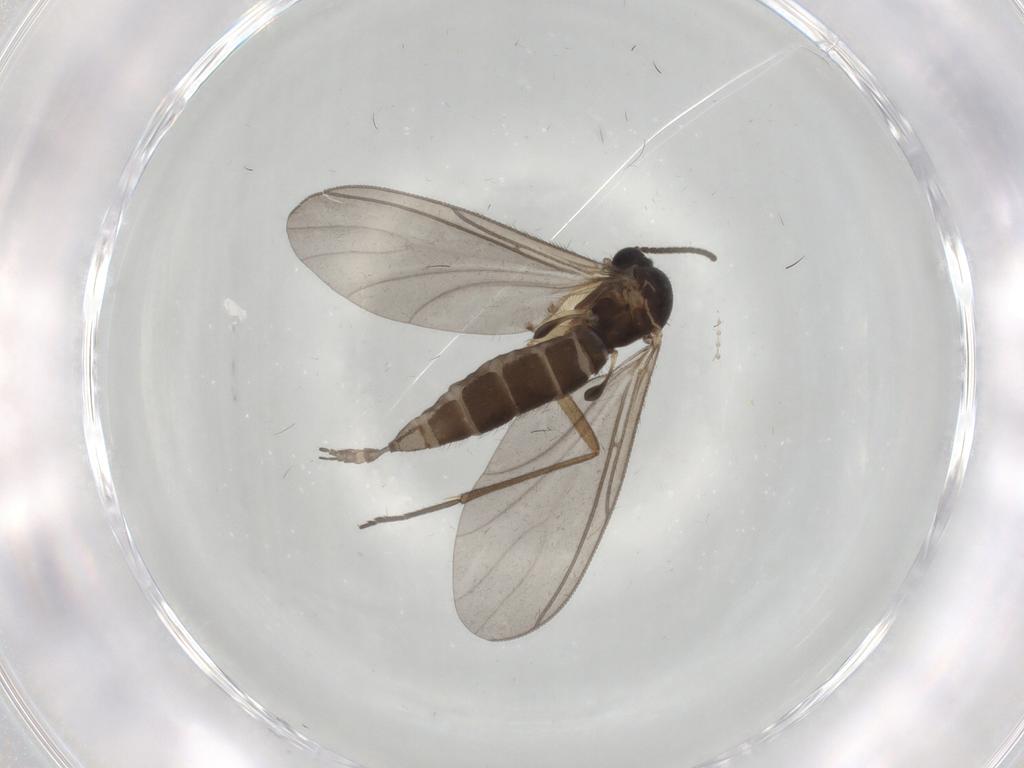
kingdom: Animalia
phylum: Arthropoda
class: Insecta
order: Diptera
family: Sciaridae
